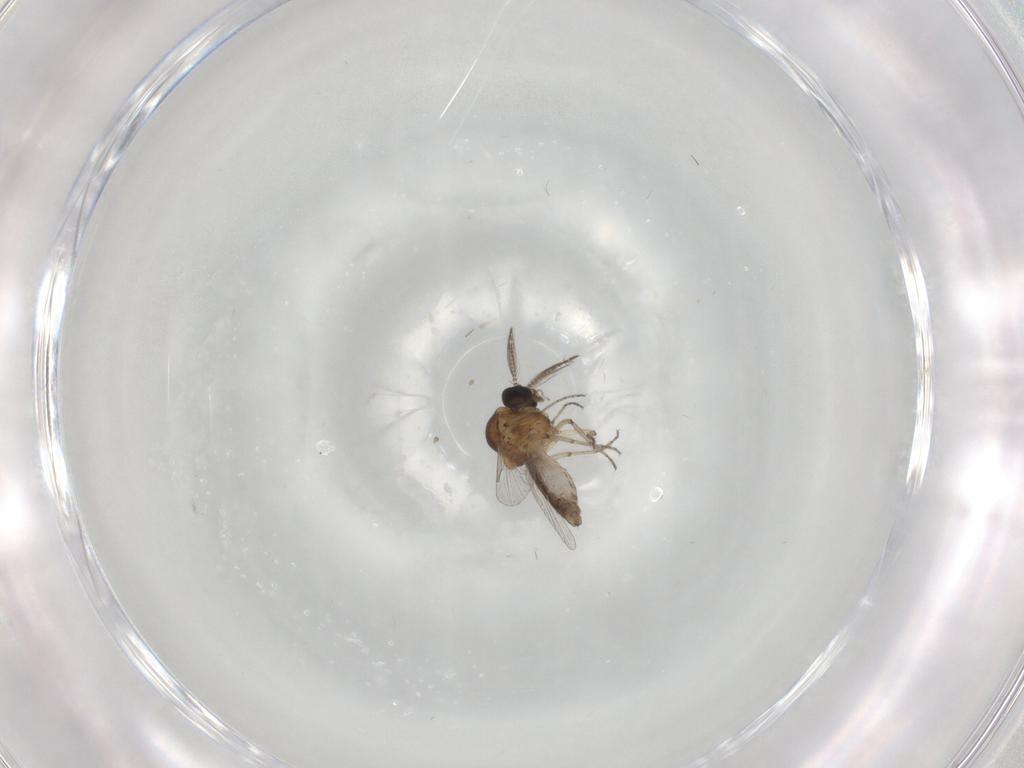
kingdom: Animalia
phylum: Arthropoda
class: Insecta
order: Diptera
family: Ceratopogonidae
